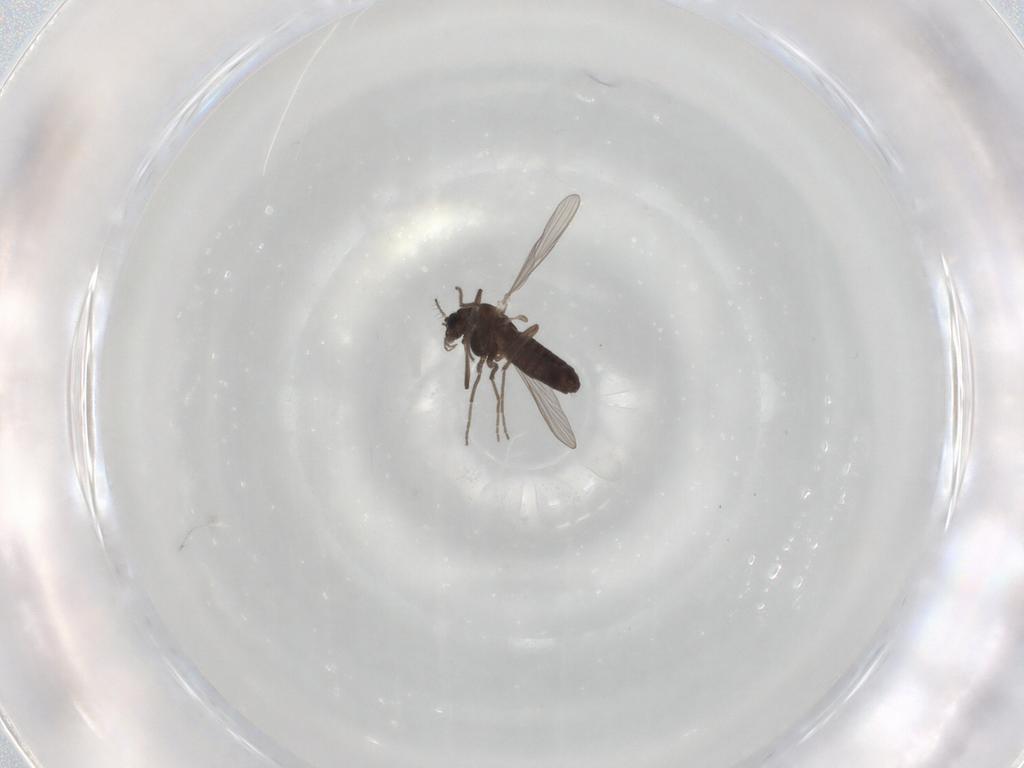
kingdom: Animalia
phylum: Arthropoda
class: Insecta
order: Diptera
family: Chironomidae
